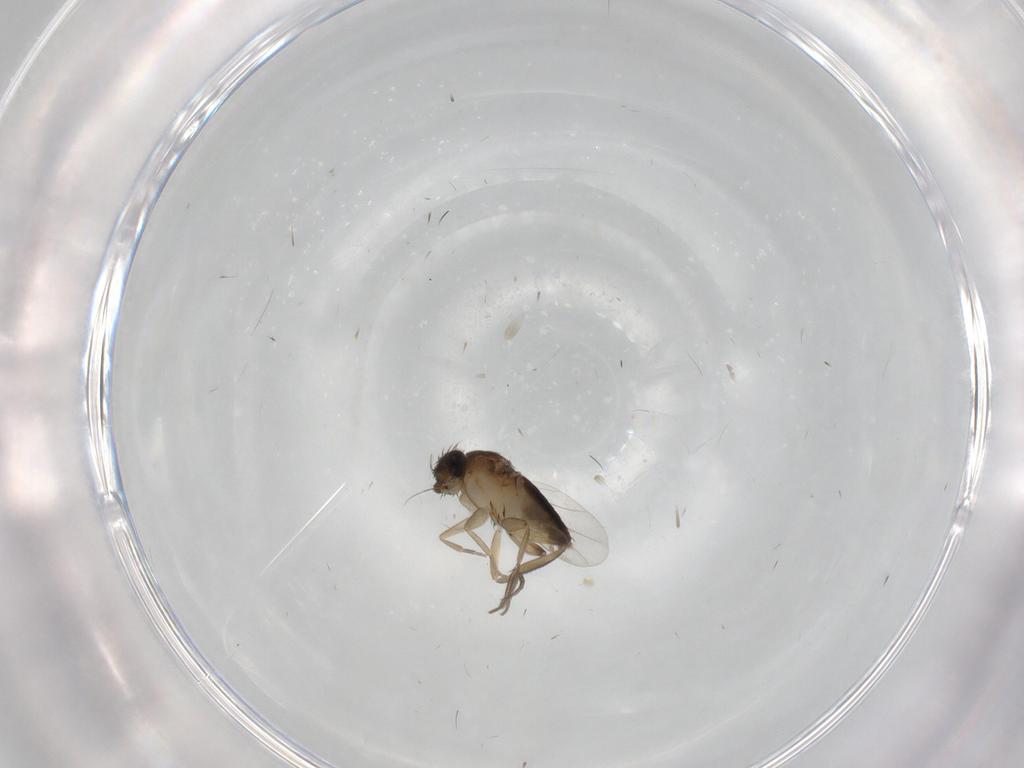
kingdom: Animalia
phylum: Arthropoda
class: Insecta
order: Diptera
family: Phoridae
